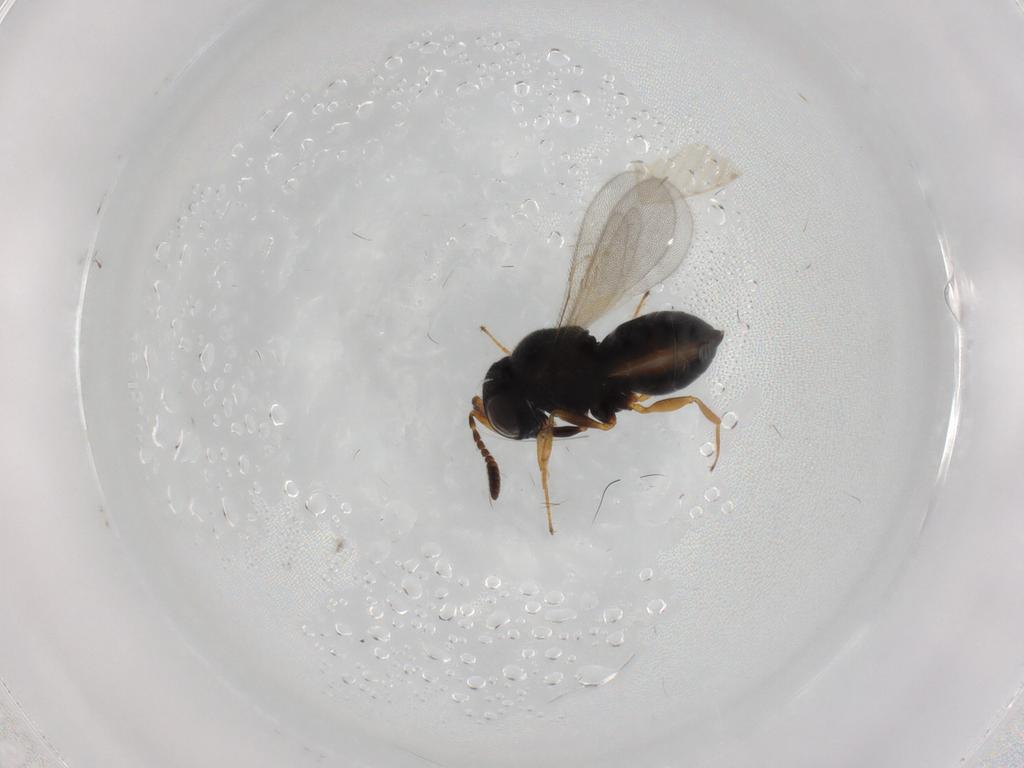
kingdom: Animalia
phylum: Arthropoda
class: Insecta
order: Hymenoptera
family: Scelionidae
